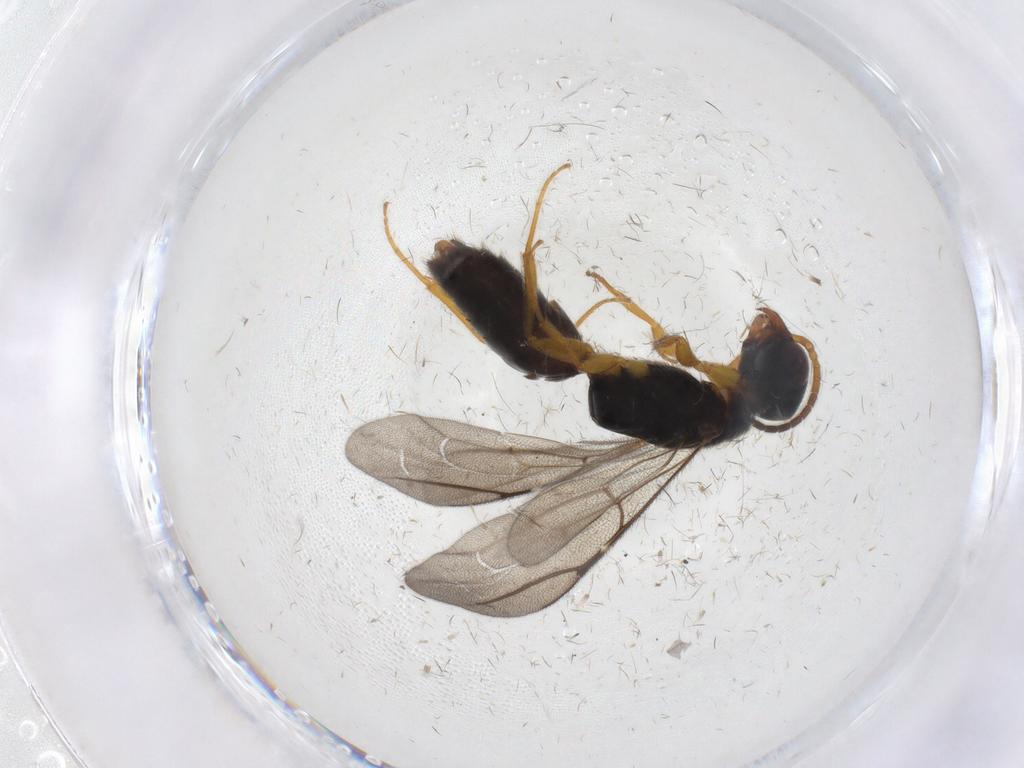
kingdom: Animalia
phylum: Arthropoda
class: Insecta
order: Hymenoptera
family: Bethylidae
